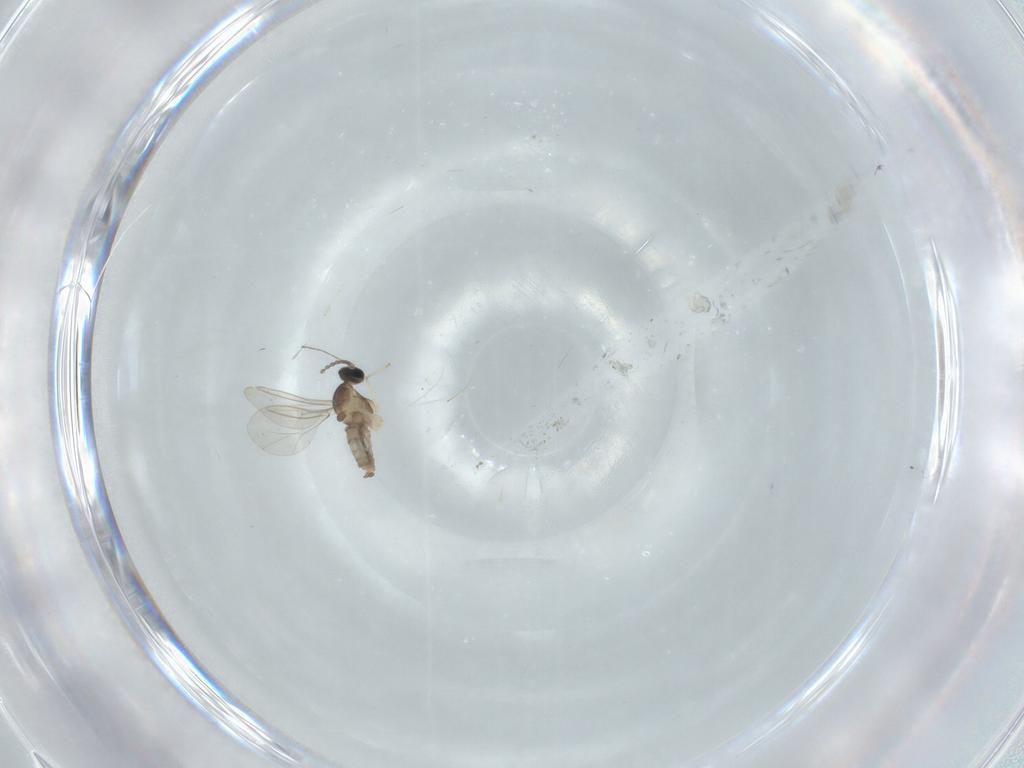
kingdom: Animalia
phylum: Arthropoda
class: Insecta
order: Diptera
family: Cecidomyiidae
